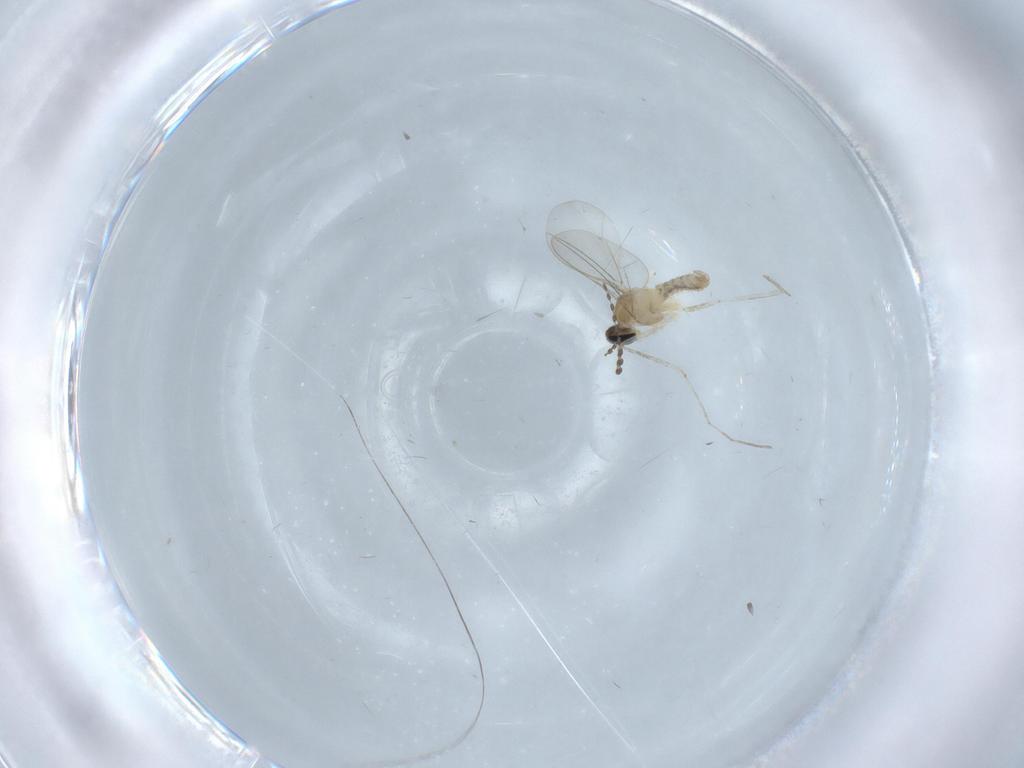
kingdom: Animalia
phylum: Arthropoda
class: Insecta
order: Diptera
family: Cecidomyiidae
